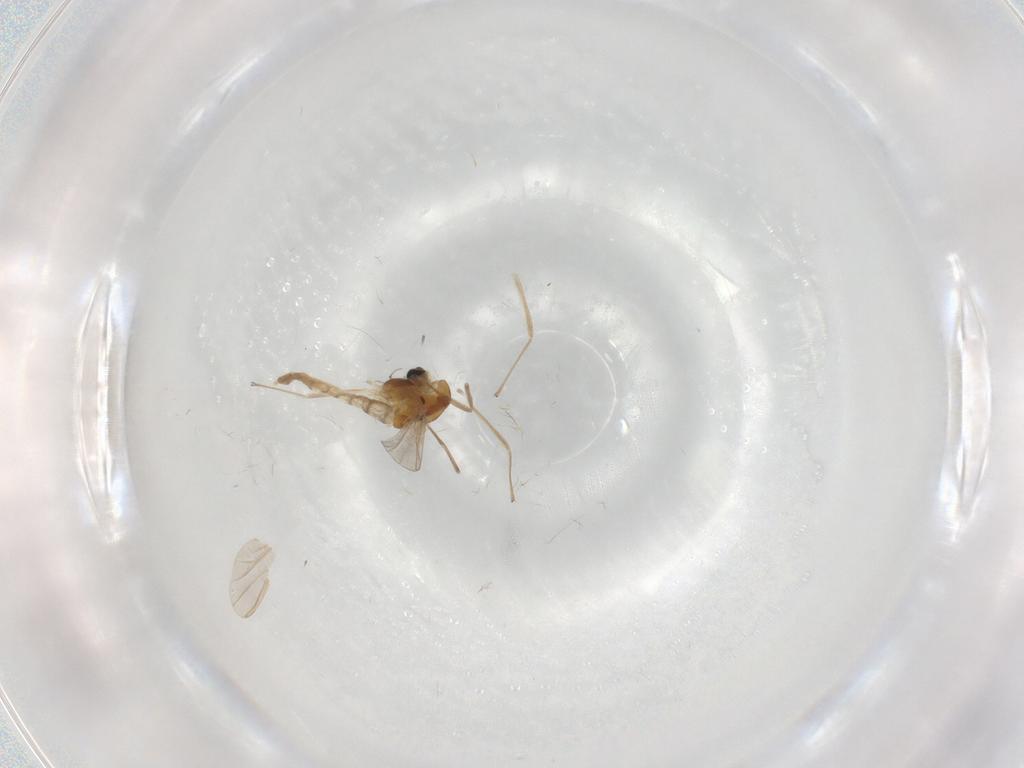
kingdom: Animalia
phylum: Arthropoda
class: Insecta
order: Diptera
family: Chironomidae
